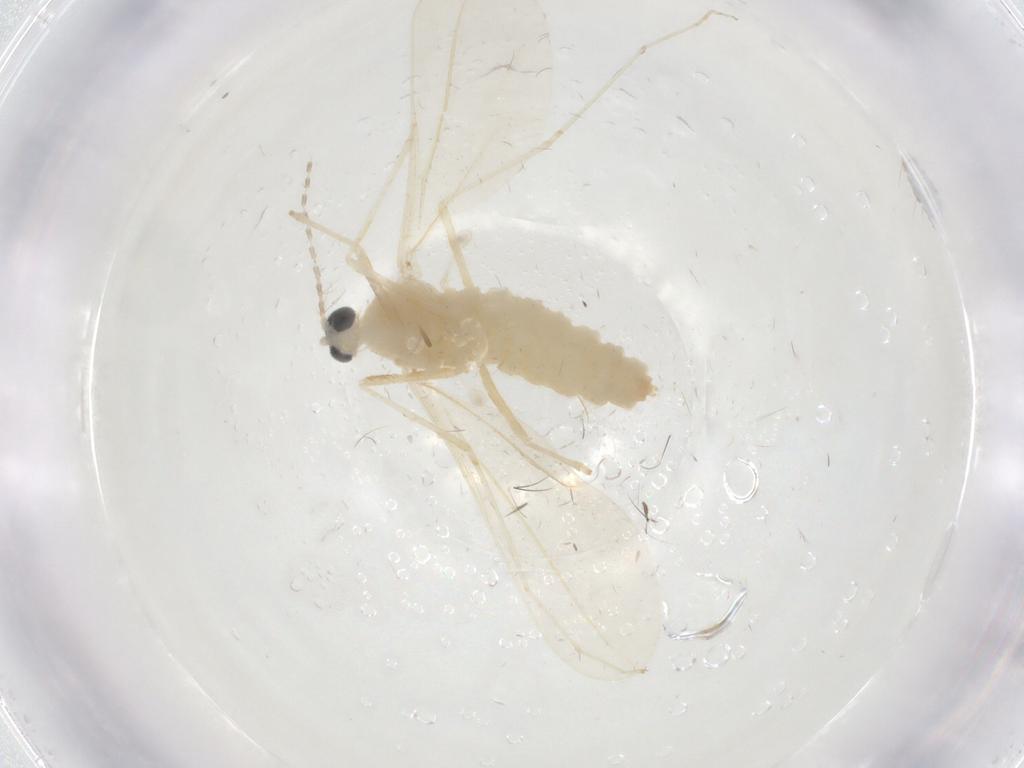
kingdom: Animalia
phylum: Arthropoda
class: Insecta
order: Diptera
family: Cecidomyiidae
